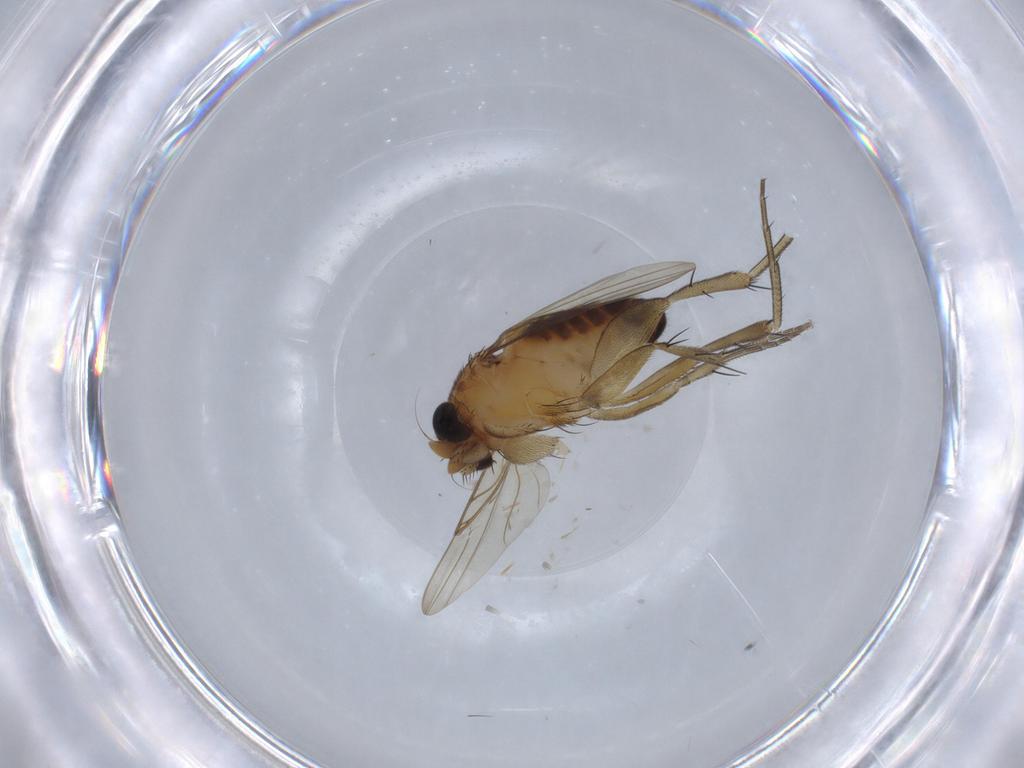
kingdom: Animalia
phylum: Arthropoda
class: Insecta
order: Diptera
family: Phoridae
